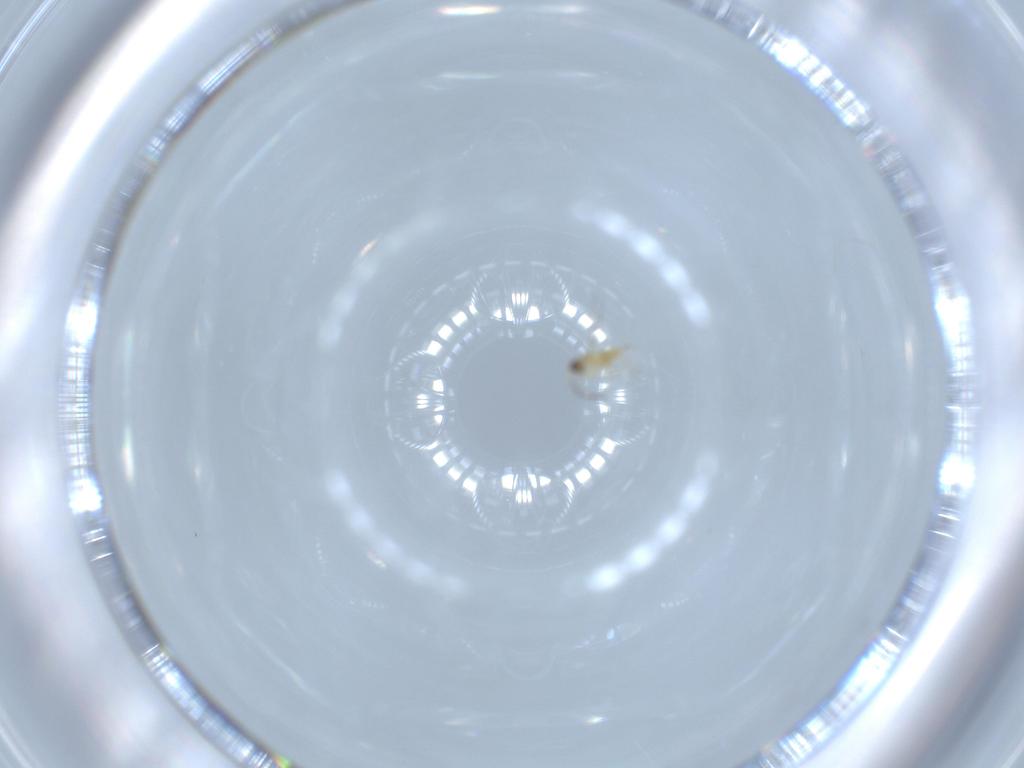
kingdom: Animalia
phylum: Arthropoda
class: Insecta
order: Hymenoptera
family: Mymaridae
